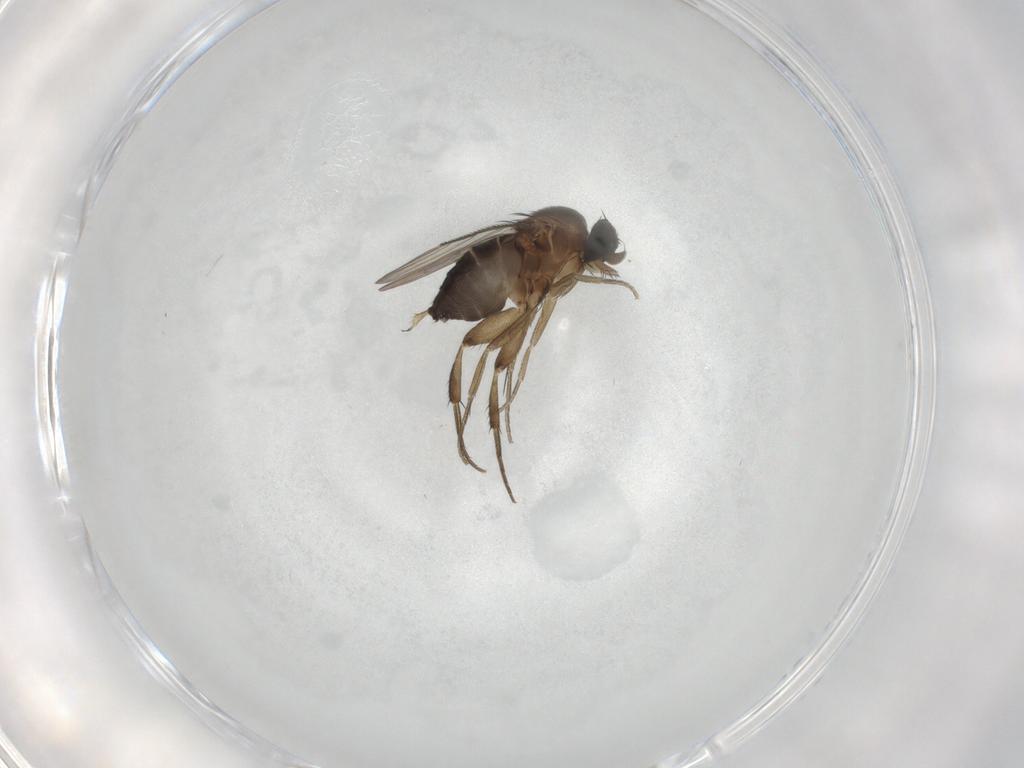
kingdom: Animalia
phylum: Arthropoda
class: Insecta
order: Diptera
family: Phoridae
